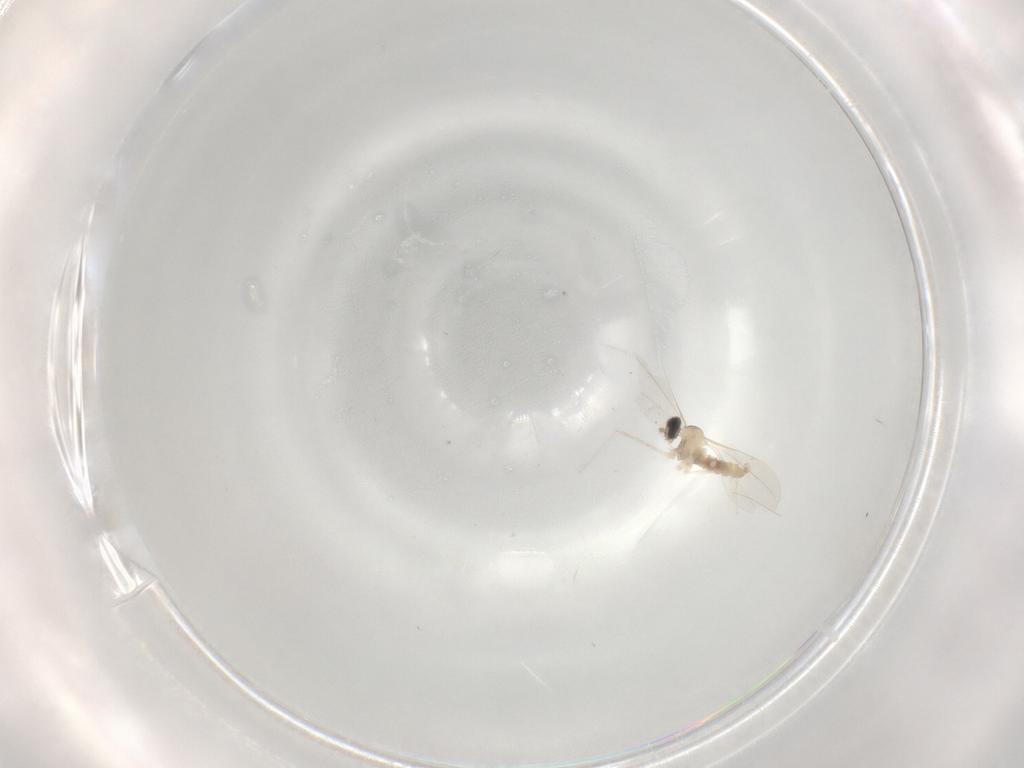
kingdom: Animalia
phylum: Arthropoda
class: Insecta
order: Diptera
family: Cecidomyiidae
